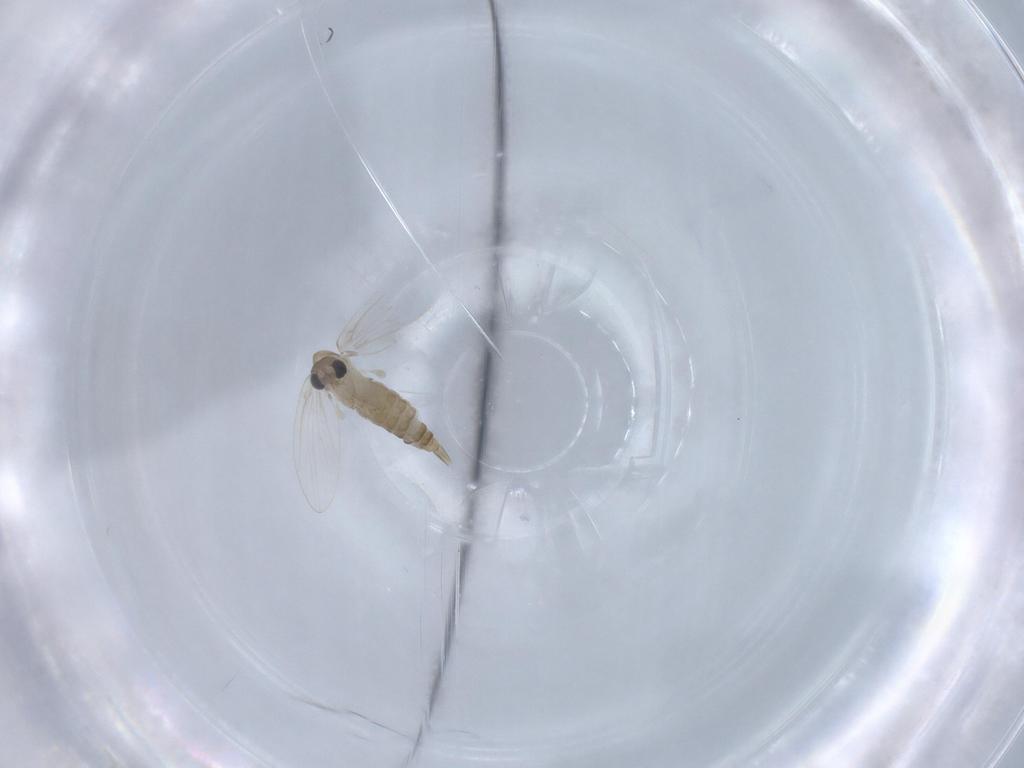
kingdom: Animalia
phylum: Arthropoda
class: Insecta
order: Diptera
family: Psychodidae
